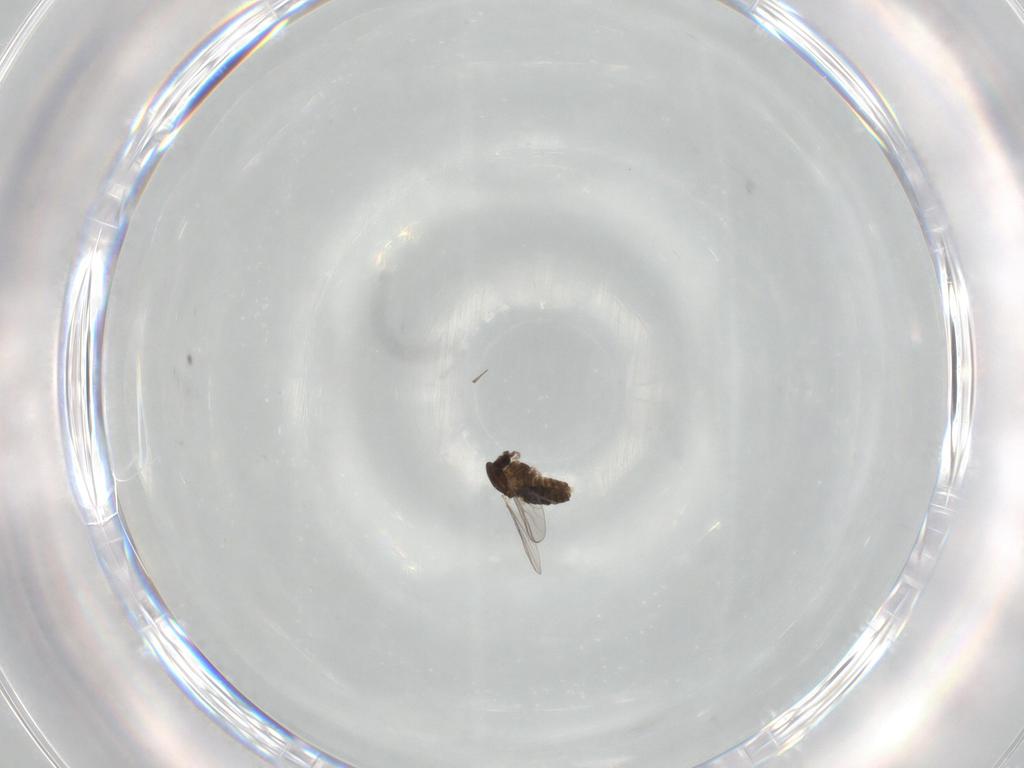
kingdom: Animalia
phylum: Arthropoda
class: Insecta
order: Diptera
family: Chironomidae
